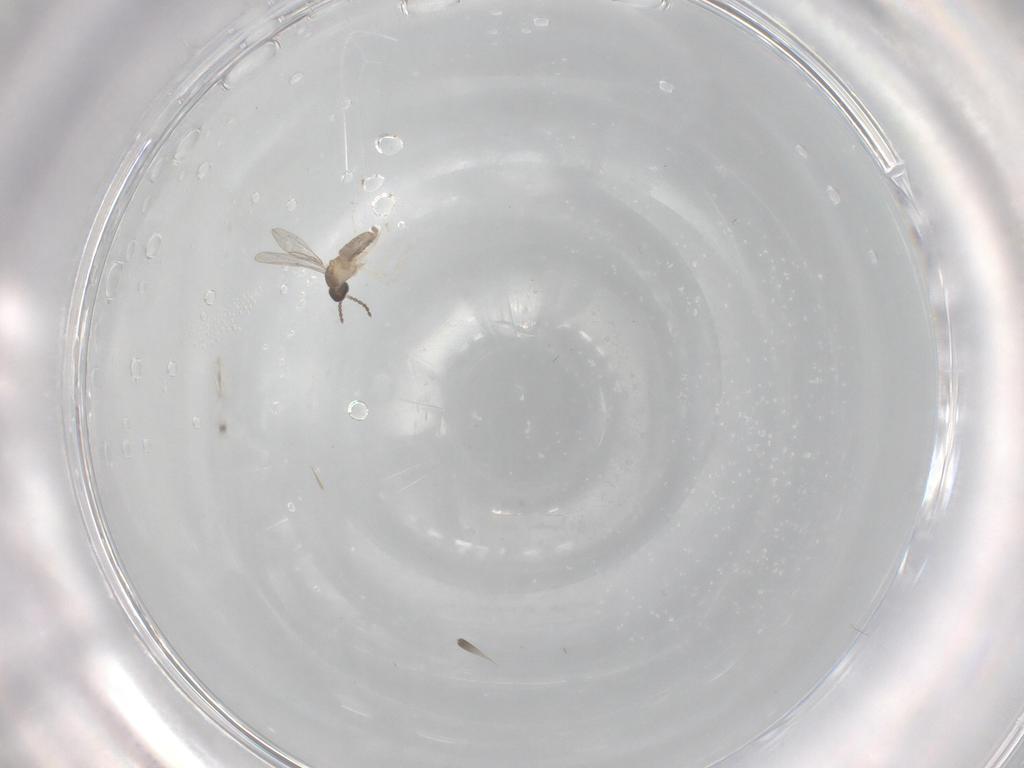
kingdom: Animalia
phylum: Arthropoda
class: Insecta
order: Diptera
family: Cecidomyiidae
